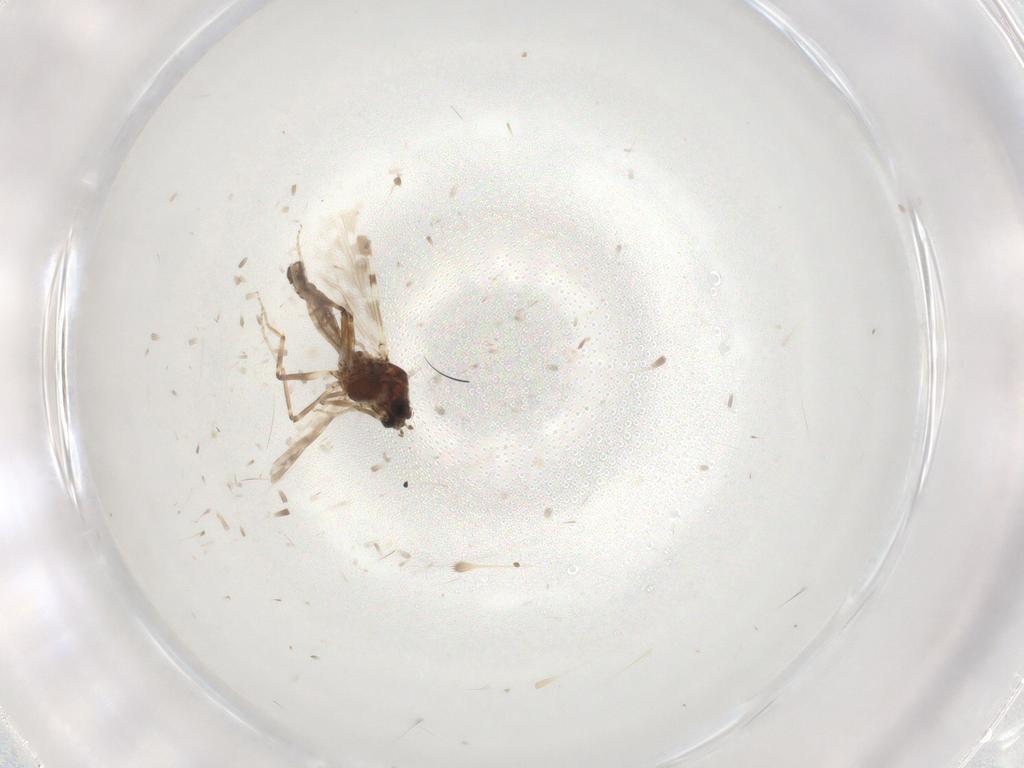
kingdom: Animalia
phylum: Arthropoda
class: Insecta
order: Diptera
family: Ceratopogonidae
